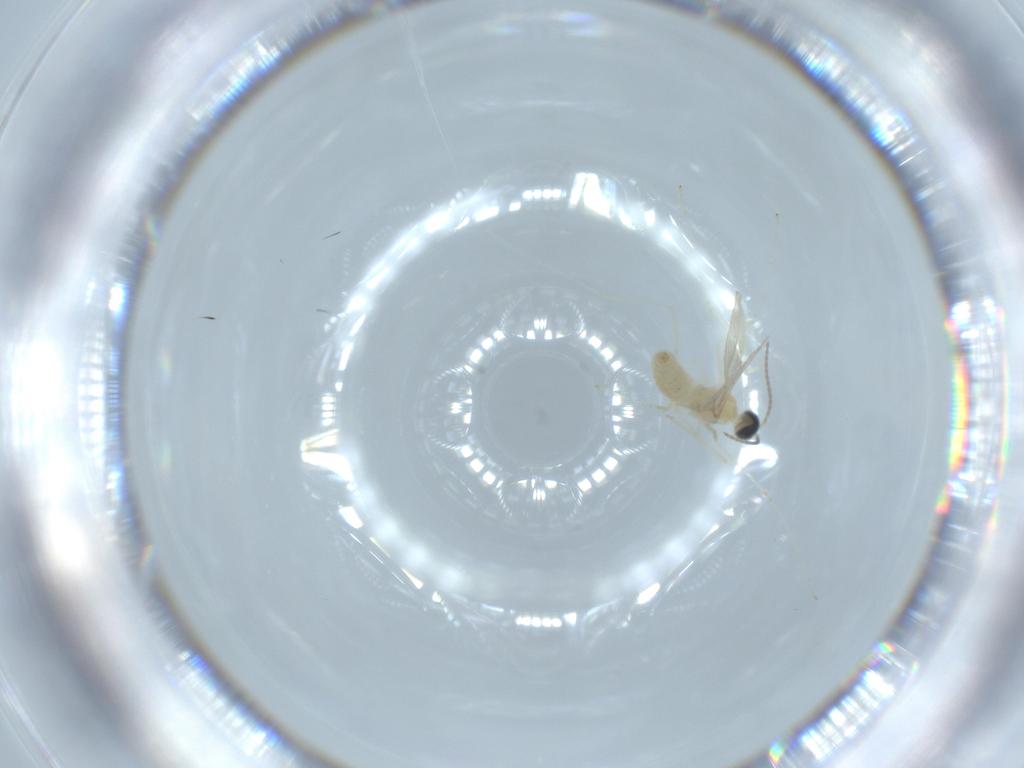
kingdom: Animalia
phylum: Arthropoda
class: Insecta
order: Diptera
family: Cecidomyiidae
